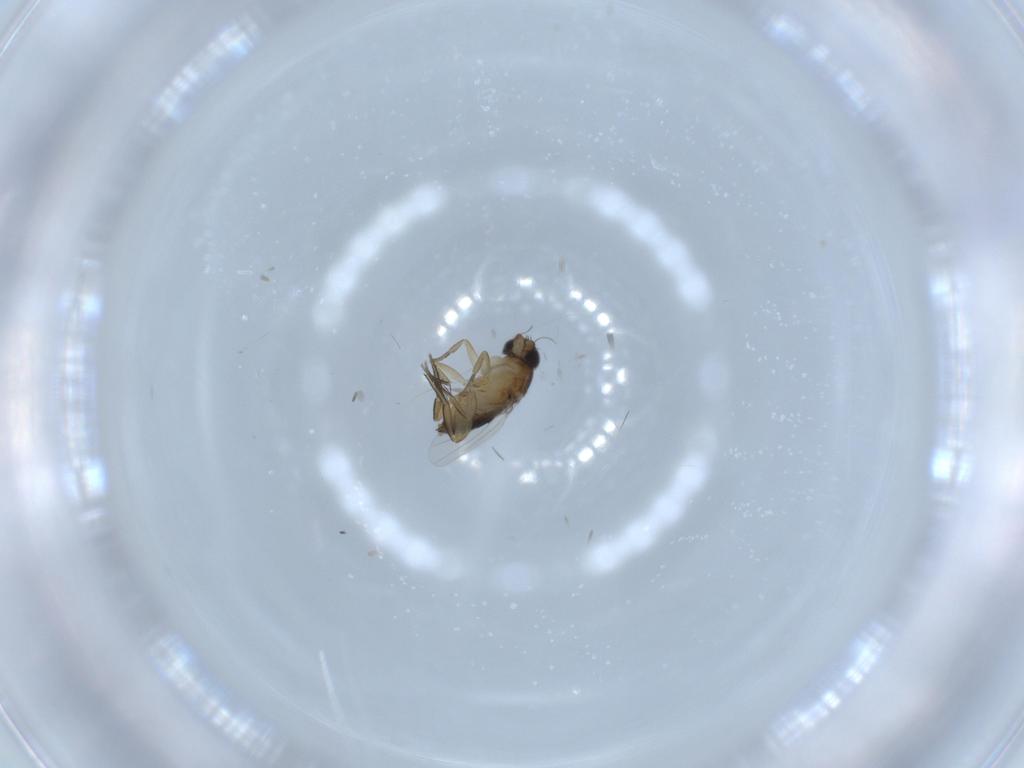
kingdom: Animalia
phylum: Arthropoda
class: Insecta
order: Diptera
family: Phoridae
